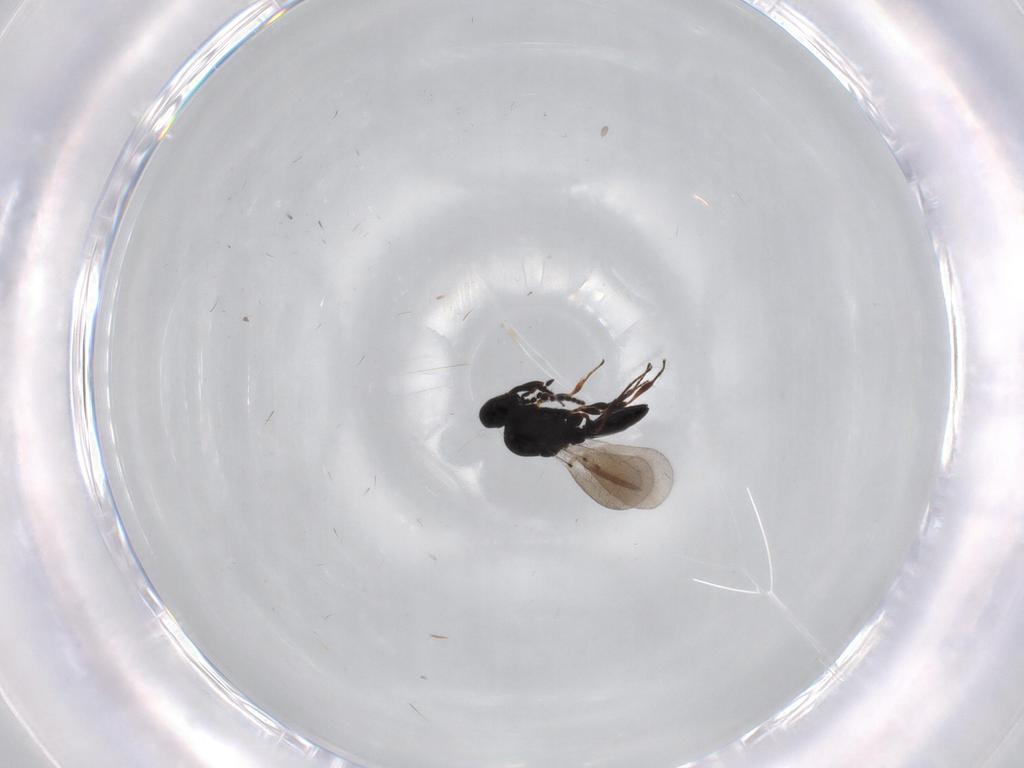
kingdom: Animalia
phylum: Arthropoda
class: Insecta
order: Hymenoptera
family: Platygastridae
